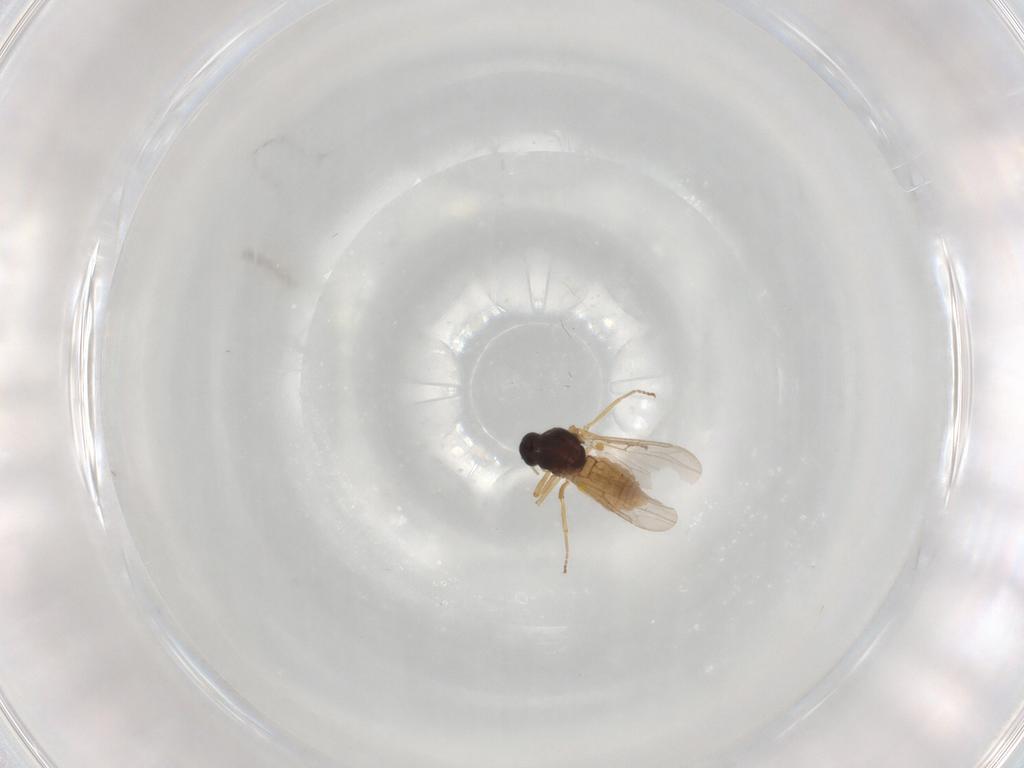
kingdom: Animalia
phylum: Arthropoda
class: Insecta
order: Diptera
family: Ceratopogonidae
